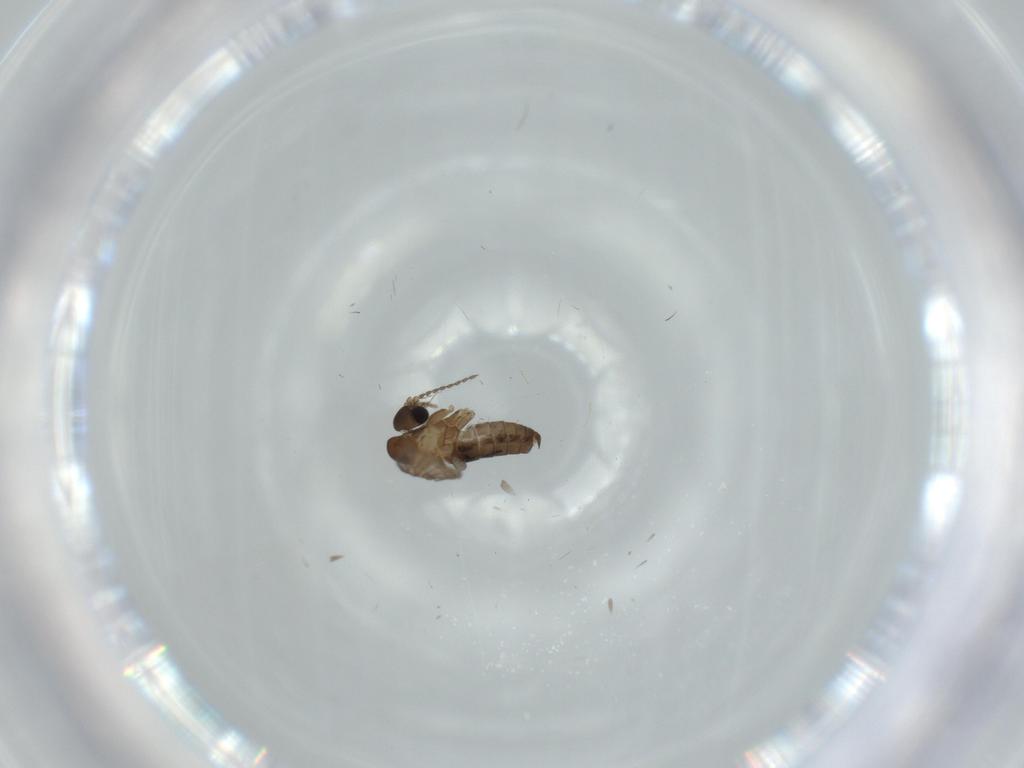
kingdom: Animalia
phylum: Arthropoda
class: Insecta
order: Diptera
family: Psychodidae
